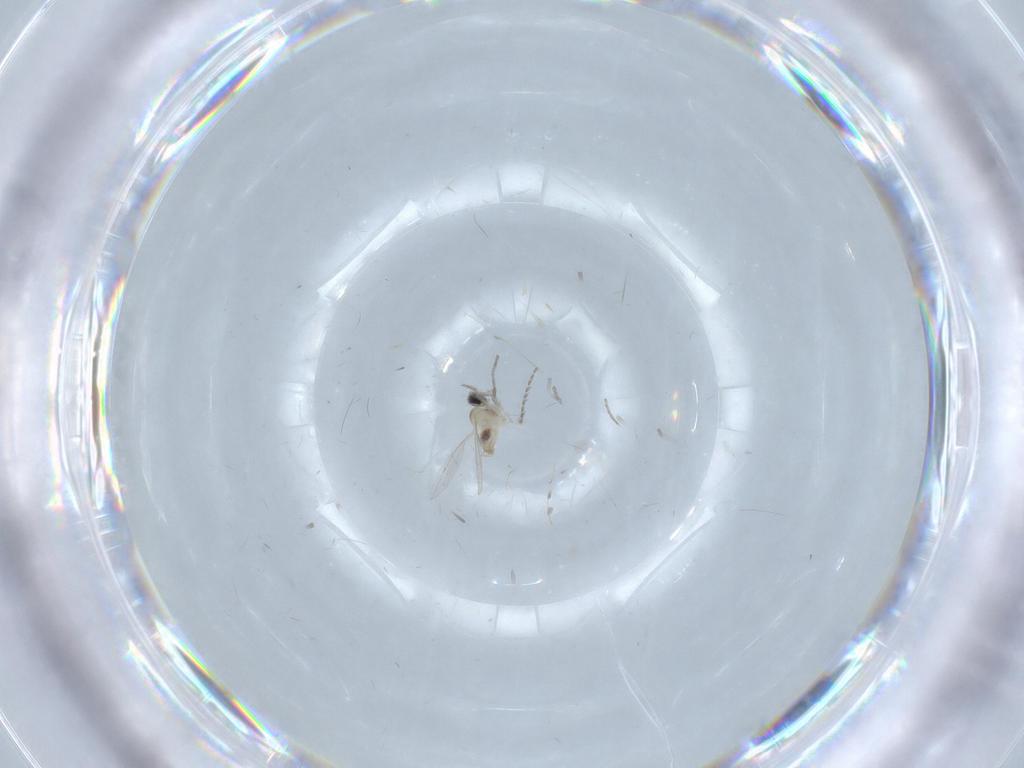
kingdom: Animalia
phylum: Arthropoda
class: Insecta
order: Diptera
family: Cecidomyiidae
